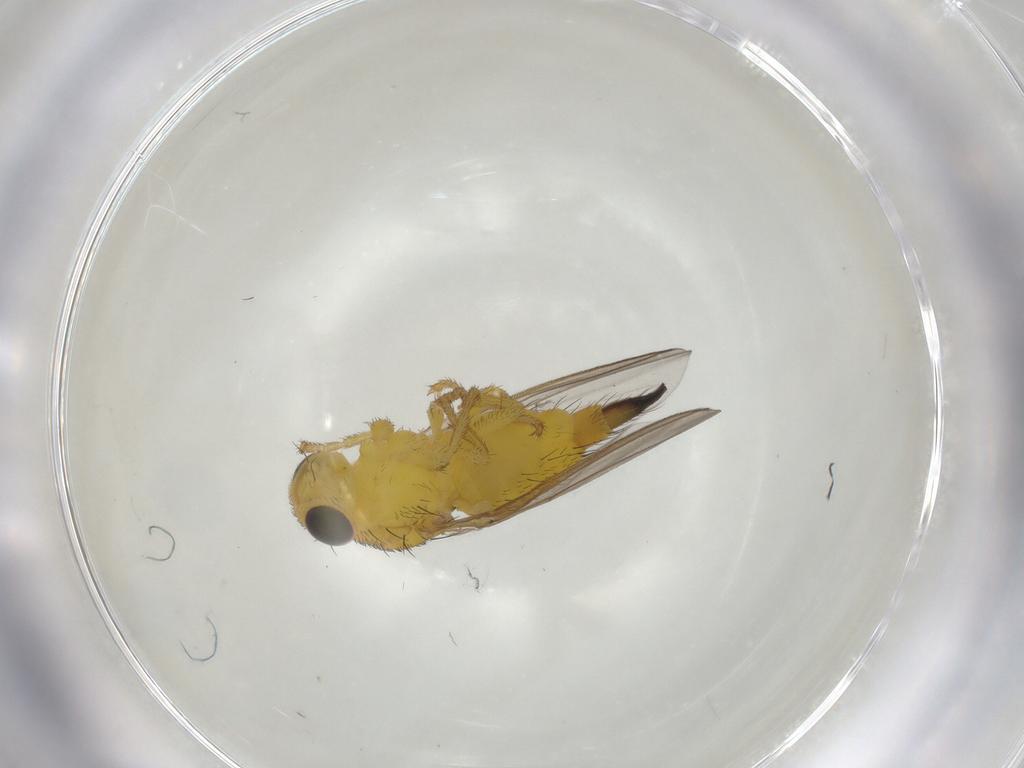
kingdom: Animalia
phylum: Arthropoda
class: Insecta
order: Diptera
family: Fergusoninidae
